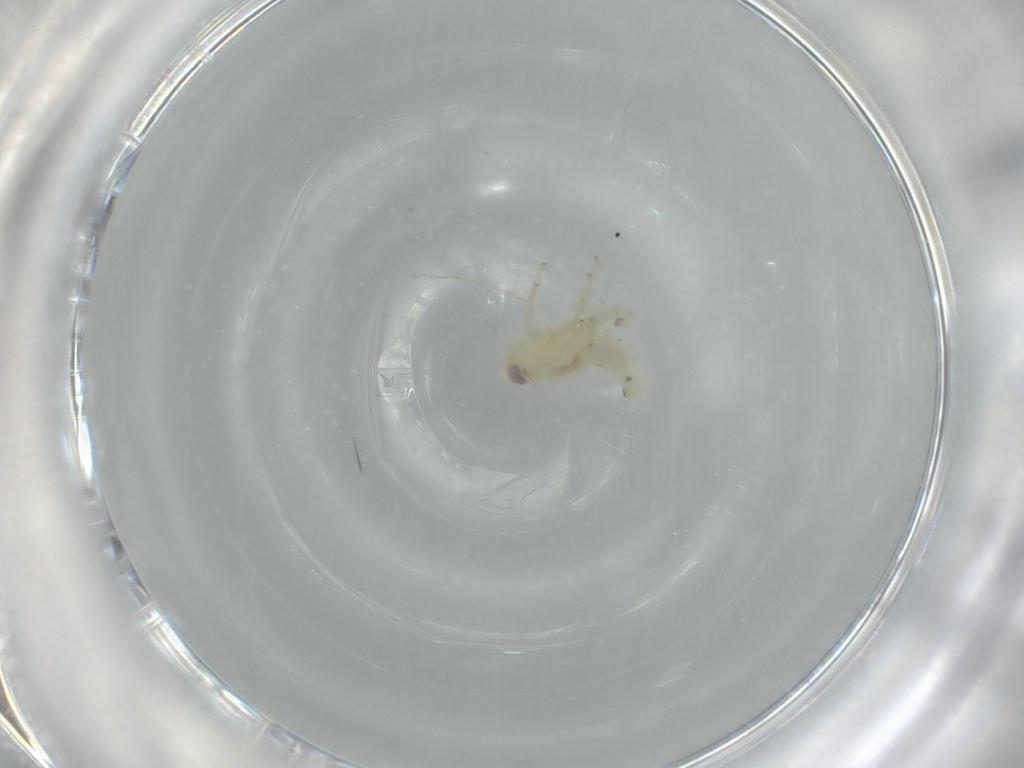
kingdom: Animalia
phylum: Arthropoda
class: Insecta
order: Hemiptera
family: Nogodinidae
